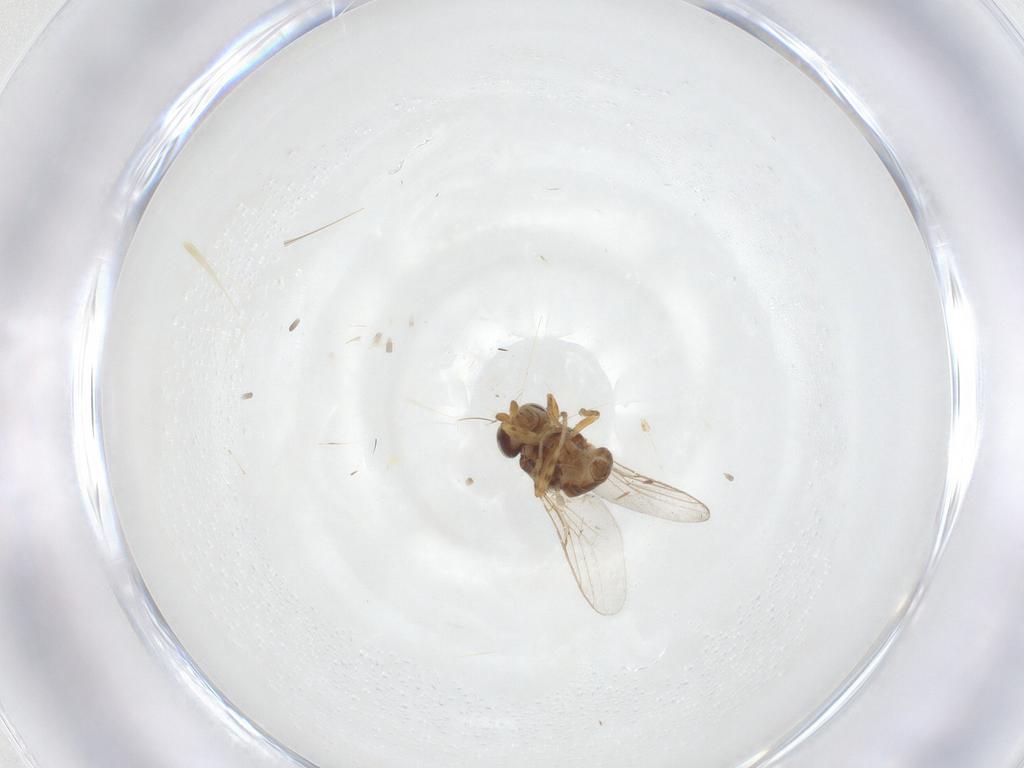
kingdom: Animalia
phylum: Arthropoda
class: Insecta
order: Diptera
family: Chloropidae
